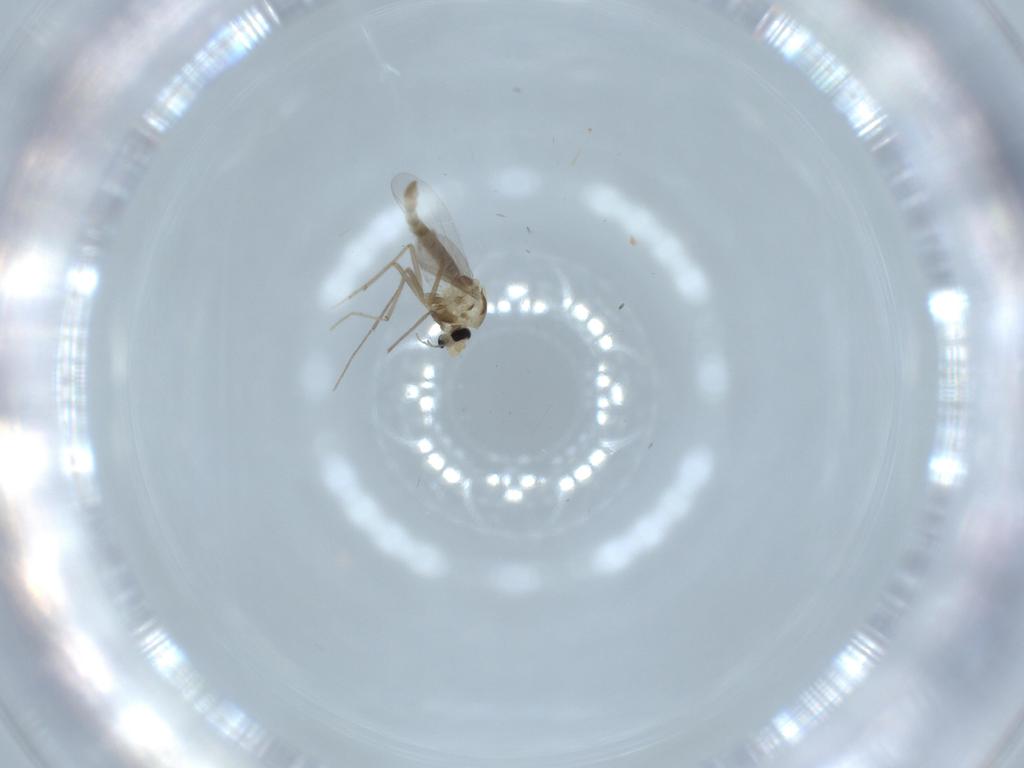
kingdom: Animalia
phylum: Arthropoda
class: Insecta
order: Diptera
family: Chironomidae
